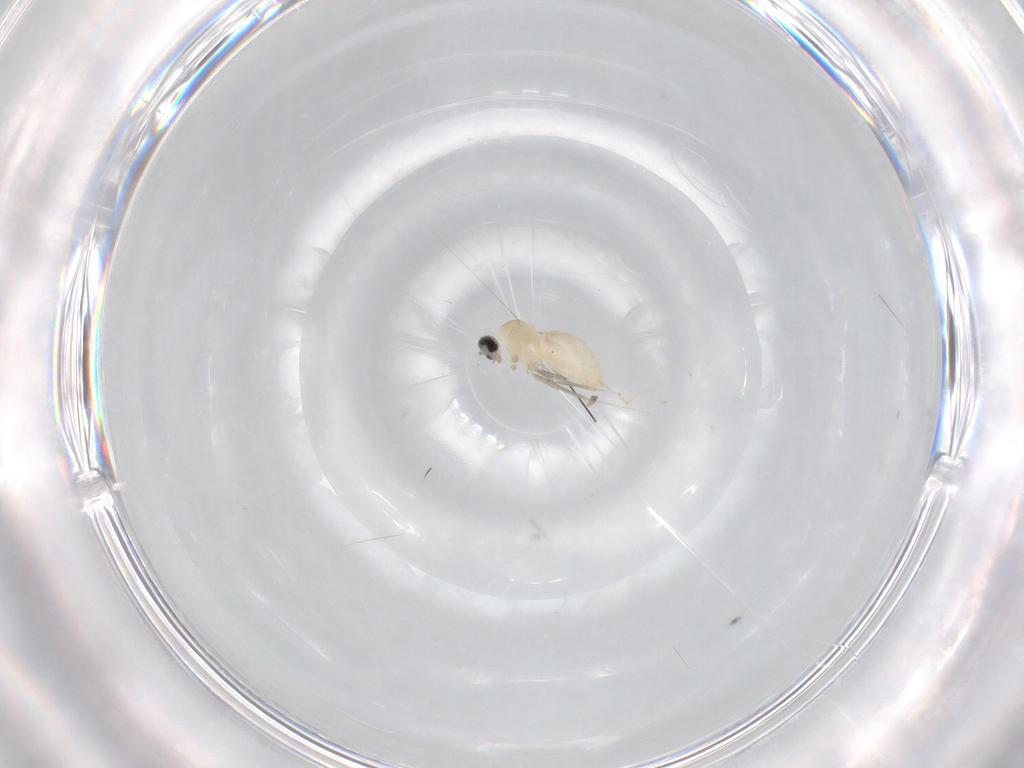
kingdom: Animalia
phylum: Arthropoda
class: Insecta
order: Diptera
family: Cecidomyiidae
